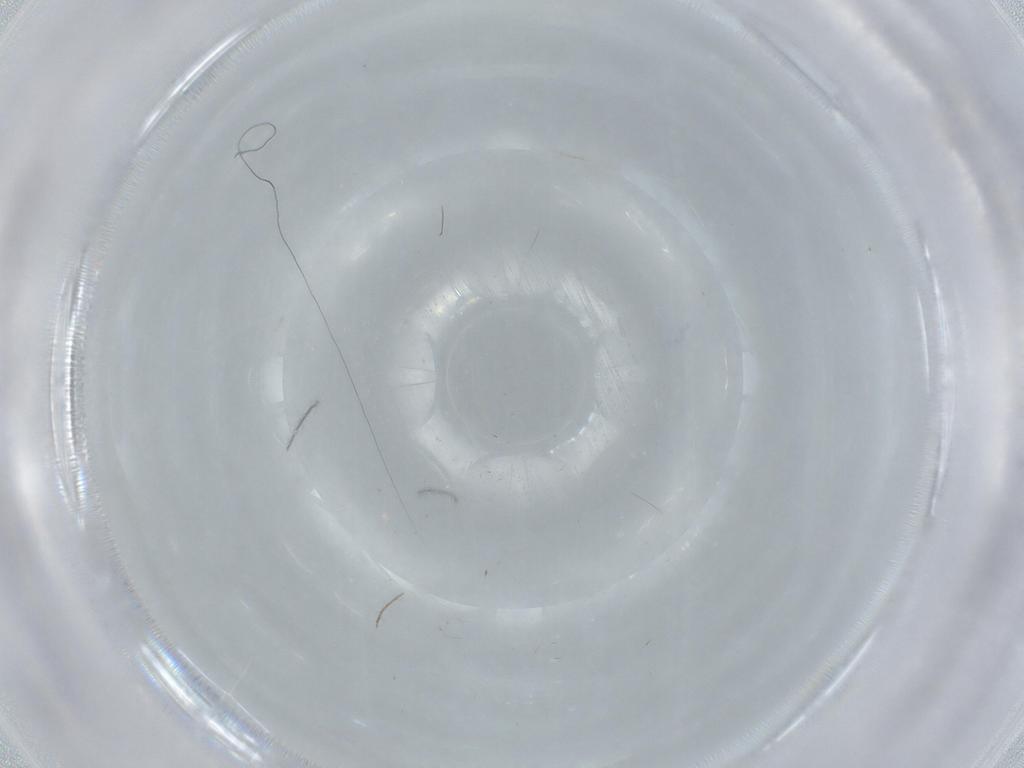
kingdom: Animalia
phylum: Arthropoda
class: Insecta
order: Diptera
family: Chironomidae
